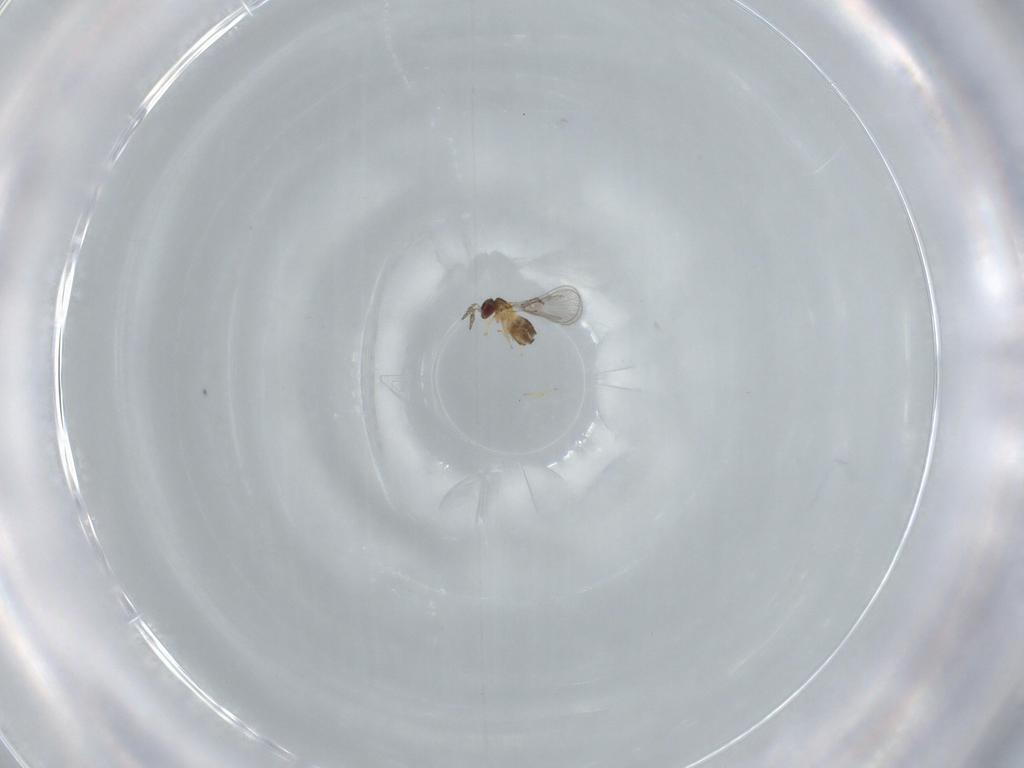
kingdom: Animalia
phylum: Arthropoda
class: Insecta
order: Hymenoptera
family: Trichogrammatidae
